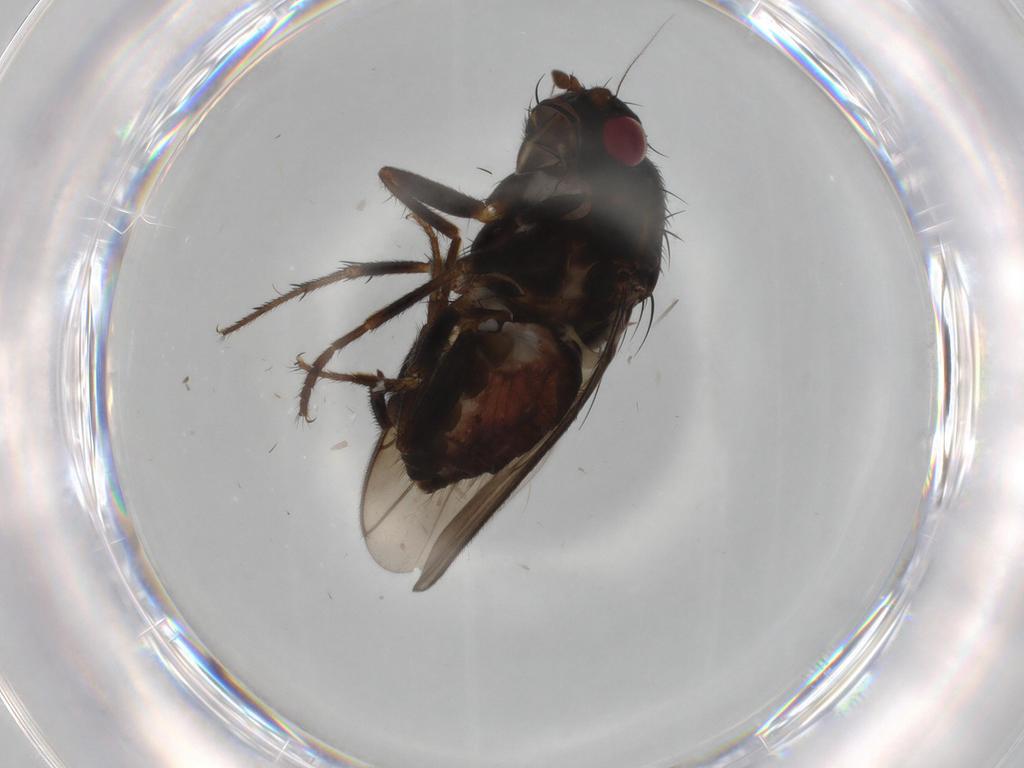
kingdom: Animalia
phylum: Arthropoda
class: Insecta
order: Diptera
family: Sphaeroceridae
